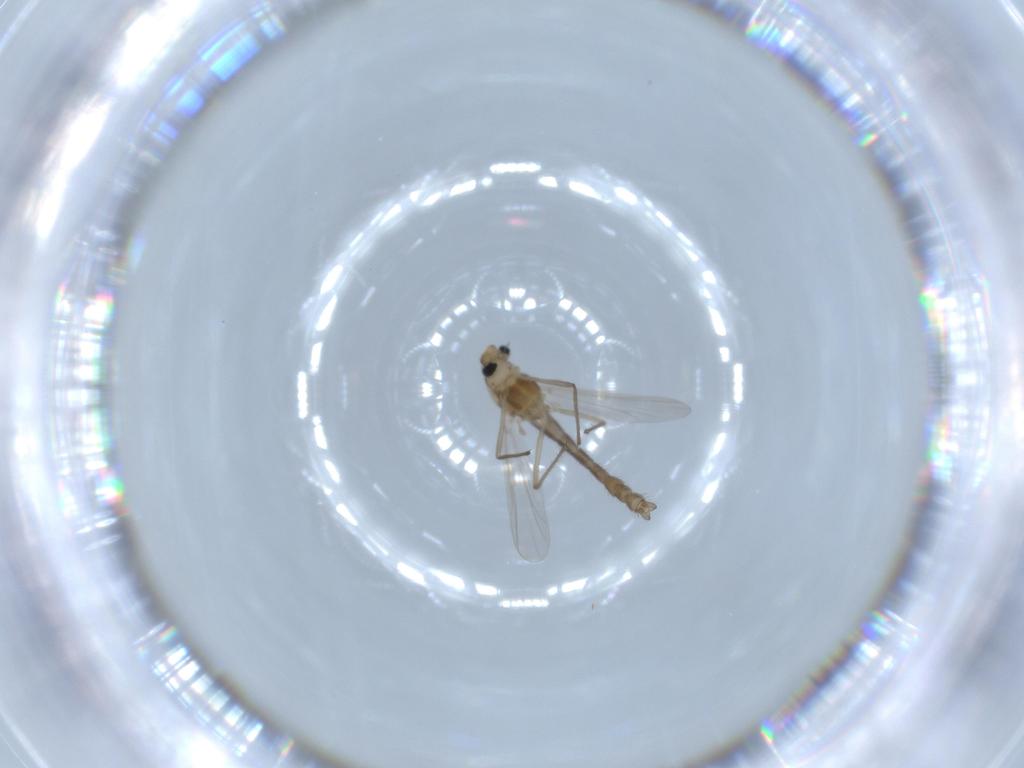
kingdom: Animalia
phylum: Arthropoda
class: Insecta
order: Diptera
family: Chironomidae
